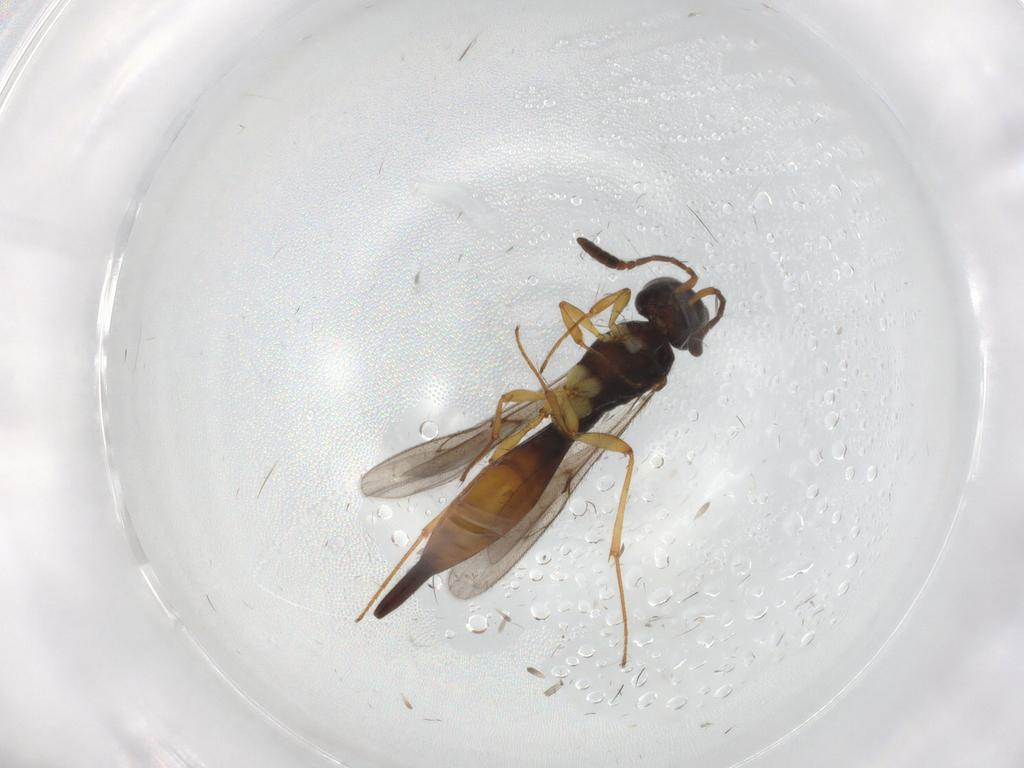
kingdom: Animalia
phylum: Arthropoda
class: Insecta
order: Hymenoptera
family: Scelionidae
